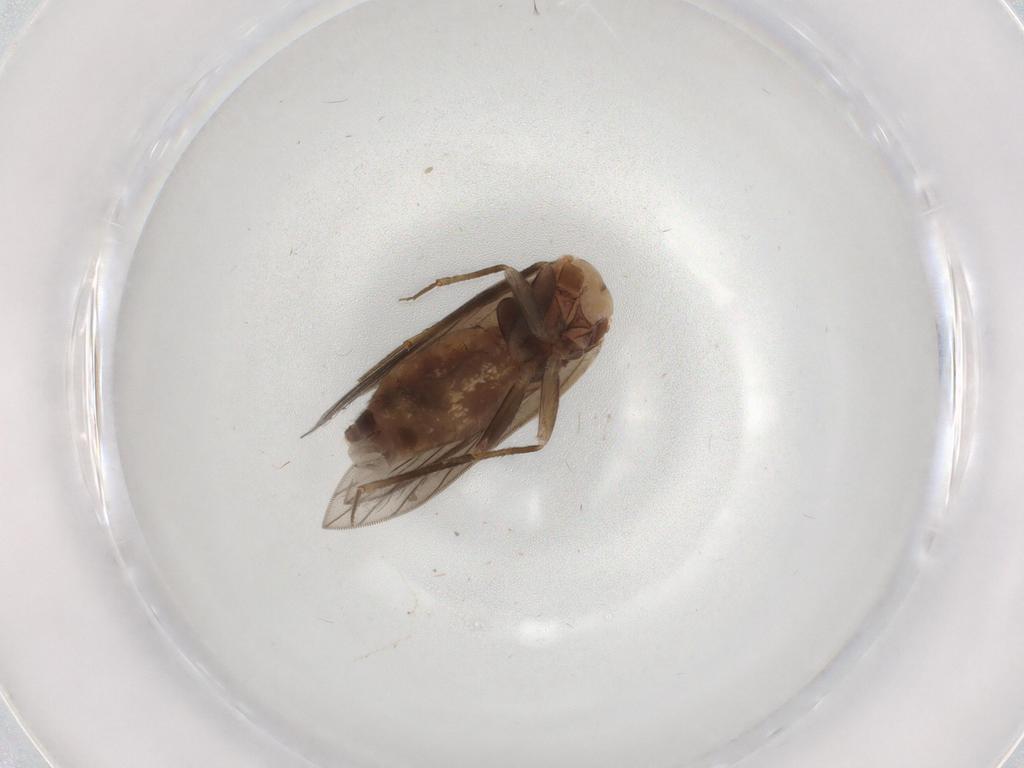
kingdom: Animalia
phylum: Arthropoda
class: Insecta
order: Psocodea
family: Lepidopsocidae
